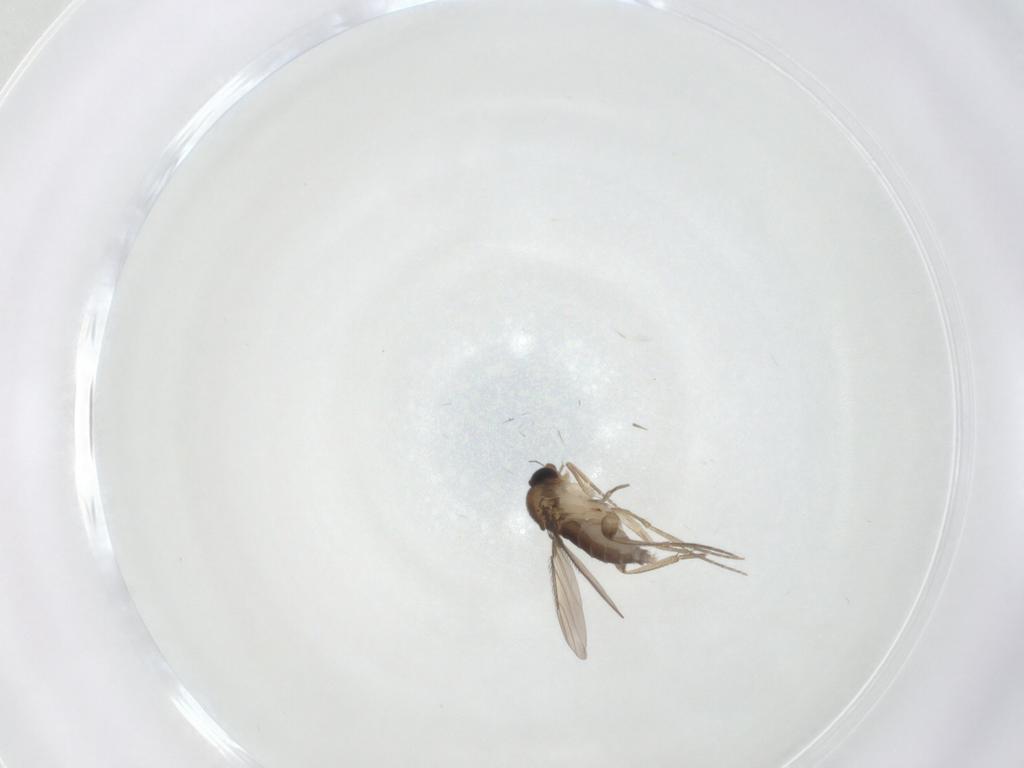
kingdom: Animalia
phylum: Arthropoda
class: Insecta
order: Diptera
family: Phoridae
